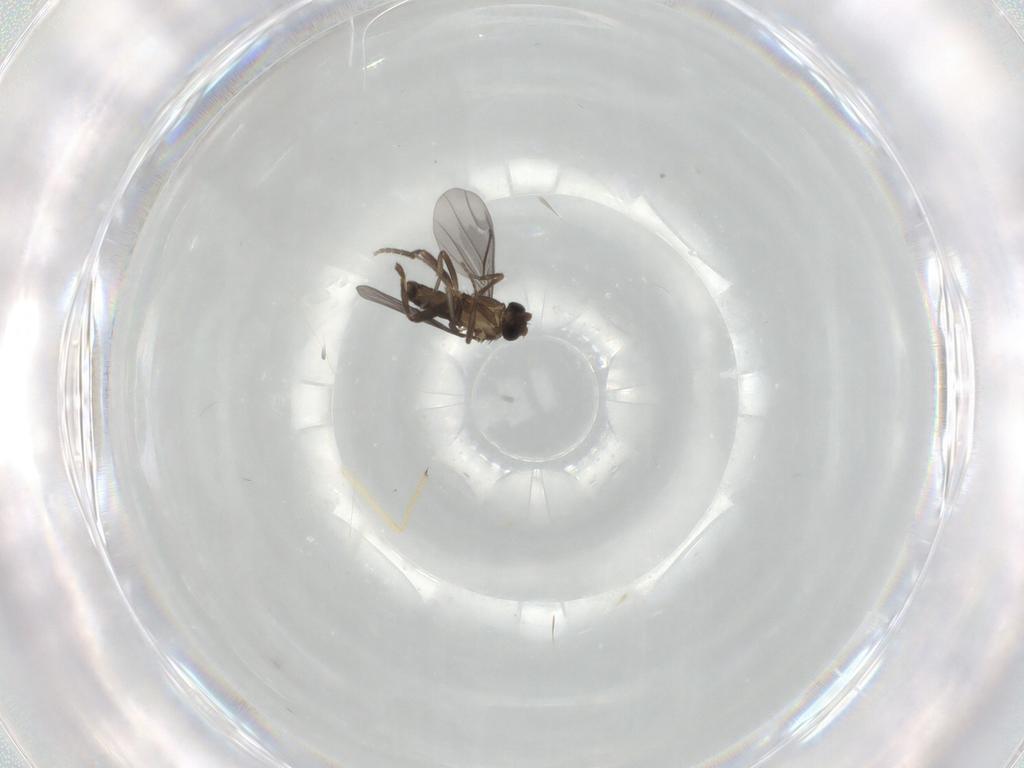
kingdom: Animalia
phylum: Arthropoda
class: Insecta
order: Diptera
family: Chironomidae
